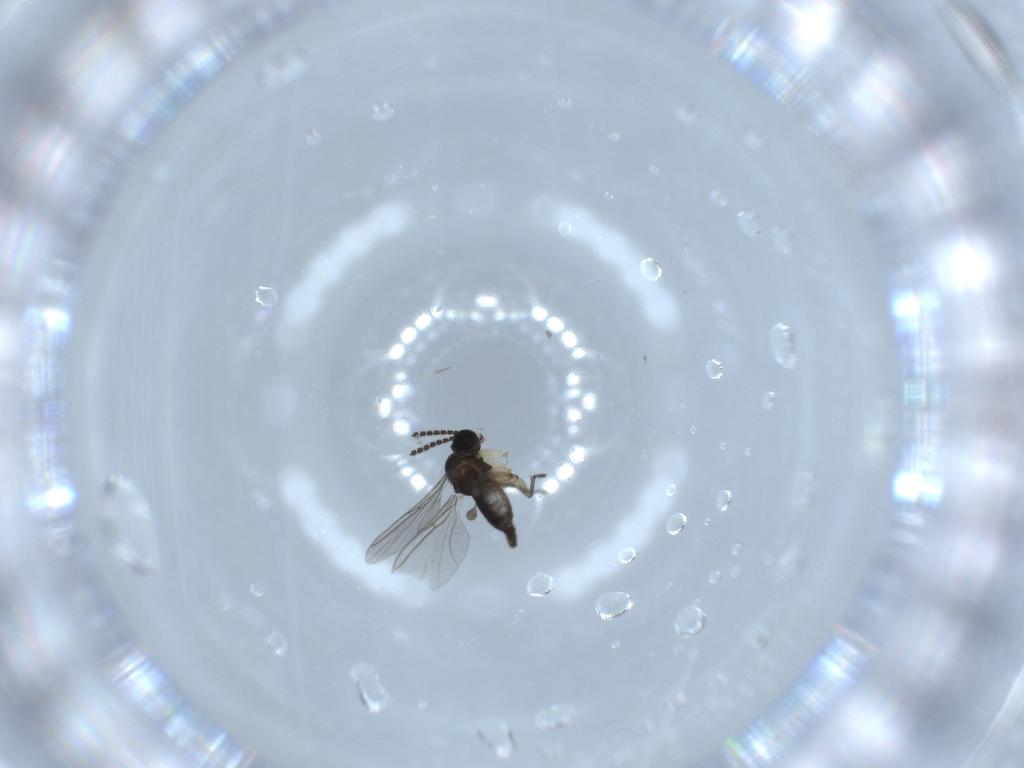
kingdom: Animalia
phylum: Arthropoda
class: Insecta
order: Diptera
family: Sciaridae
